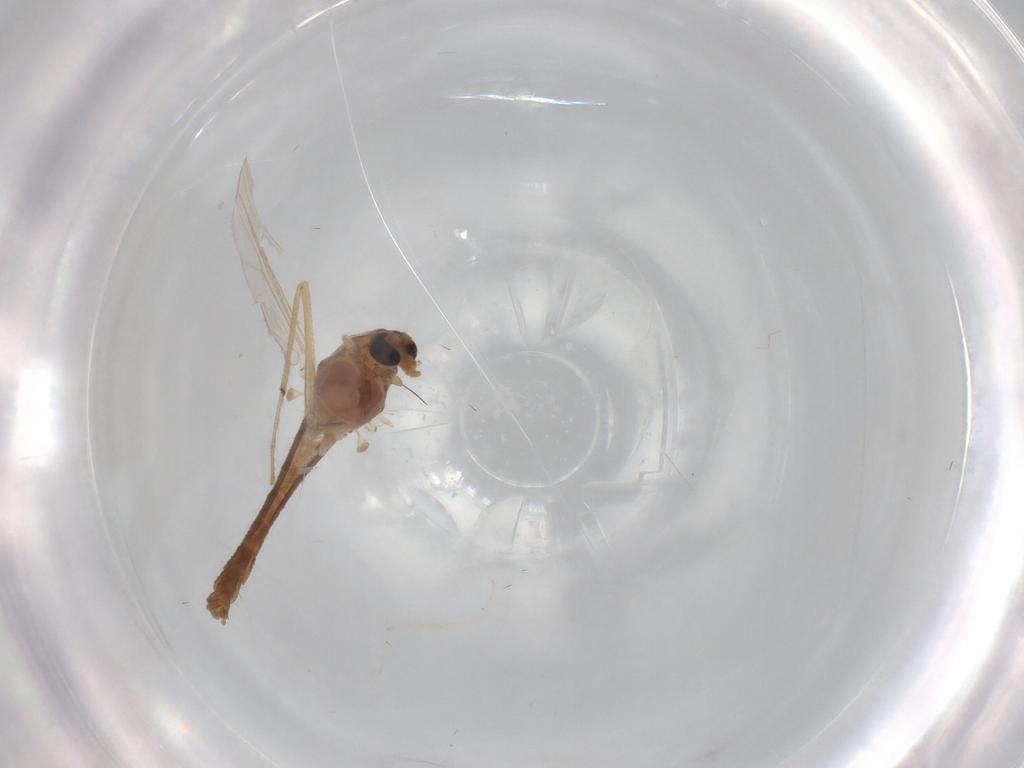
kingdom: Animalia
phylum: Arthropoda
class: Insecta
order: Diptera
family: Chironomidae
